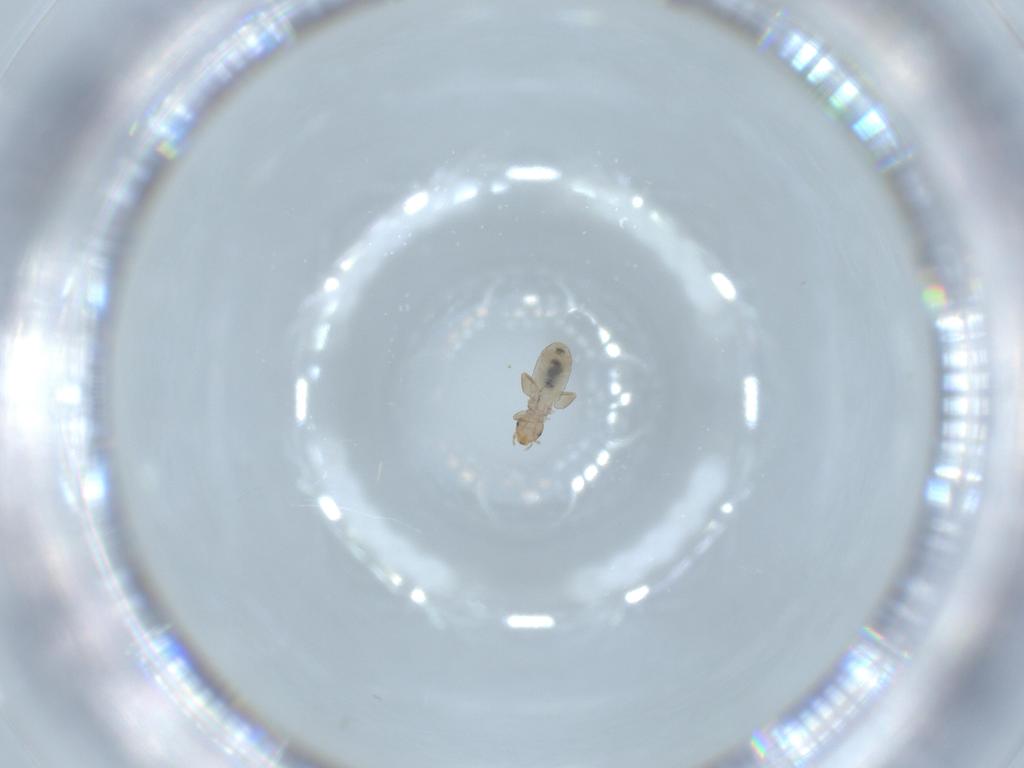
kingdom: Animalia
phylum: Arthropoda
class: Insecta
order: Psocodea
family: Liposcelididae
